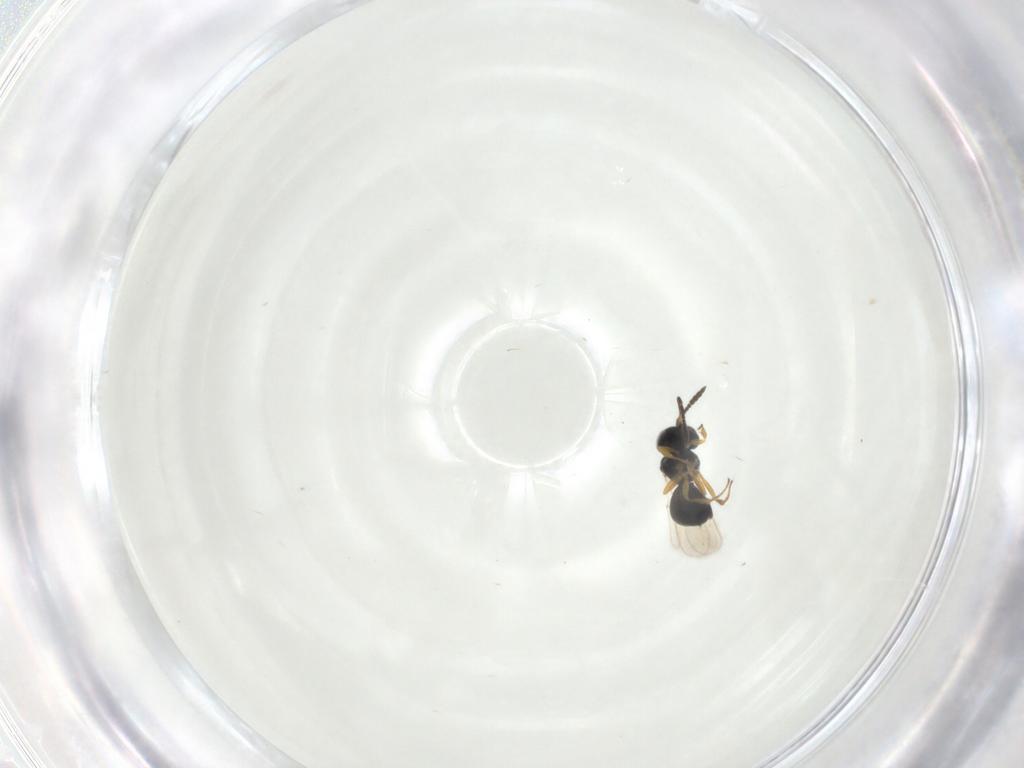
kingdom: Animalia
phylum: Arthropoda
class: Insecta
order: Hymenoptera
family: Scelionidae
